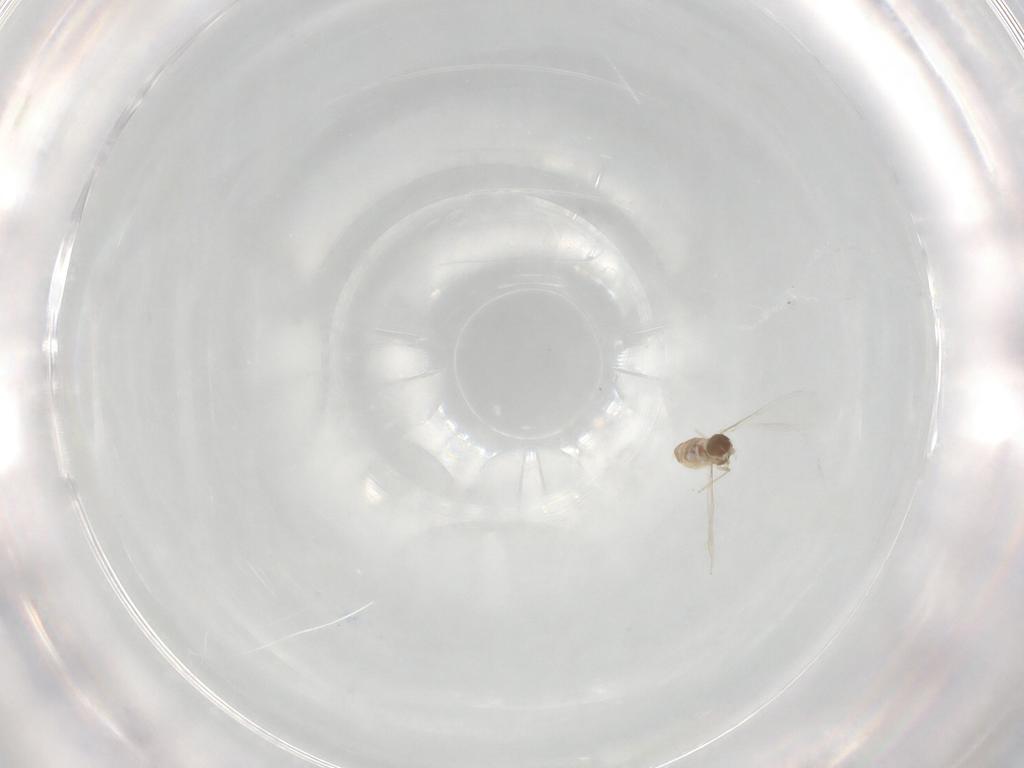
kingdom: Animalia
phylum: Arthropoda
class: Insecta
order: Diptera
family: Cecidomyiidae
